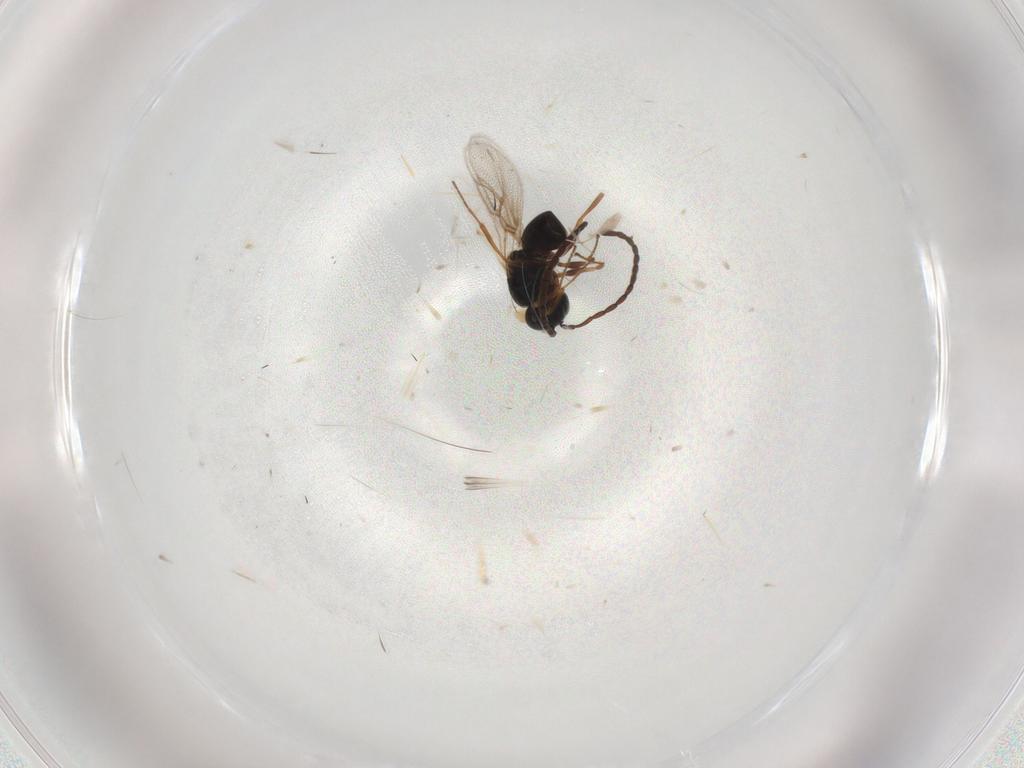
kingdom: Animalia
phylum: Arthropoda
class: Insecta
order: Hymenoptera
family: Figitidae
